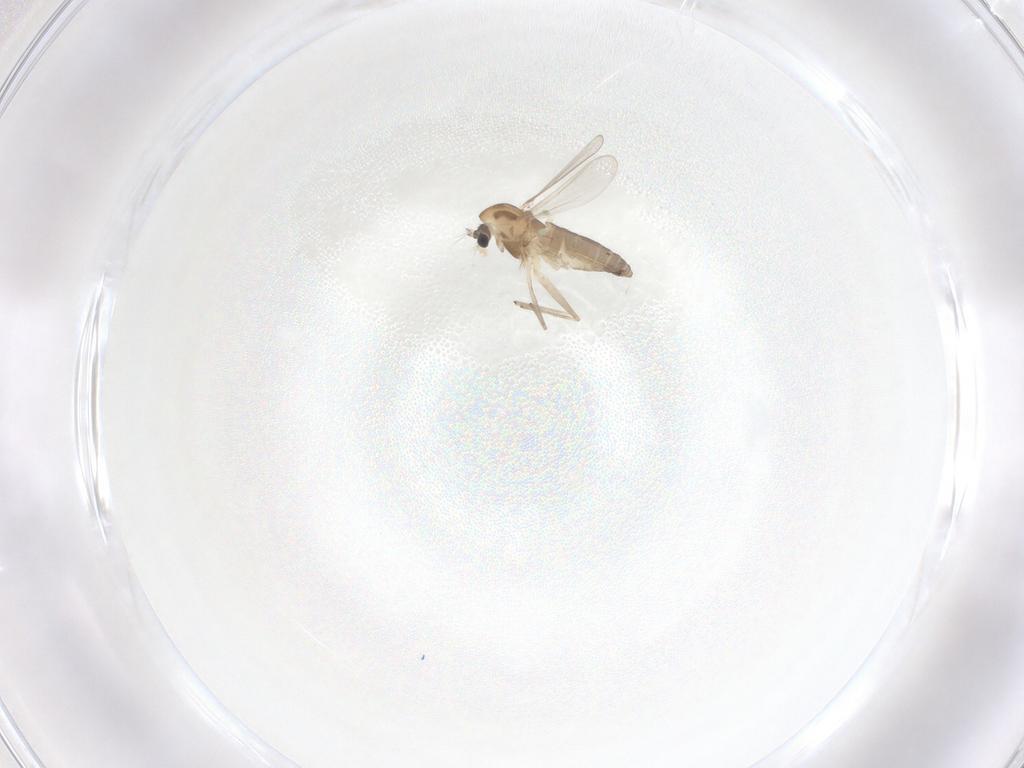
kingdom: Animalia
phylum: Arthropoda
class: Insecta
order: Diptera
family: Chironomidae
